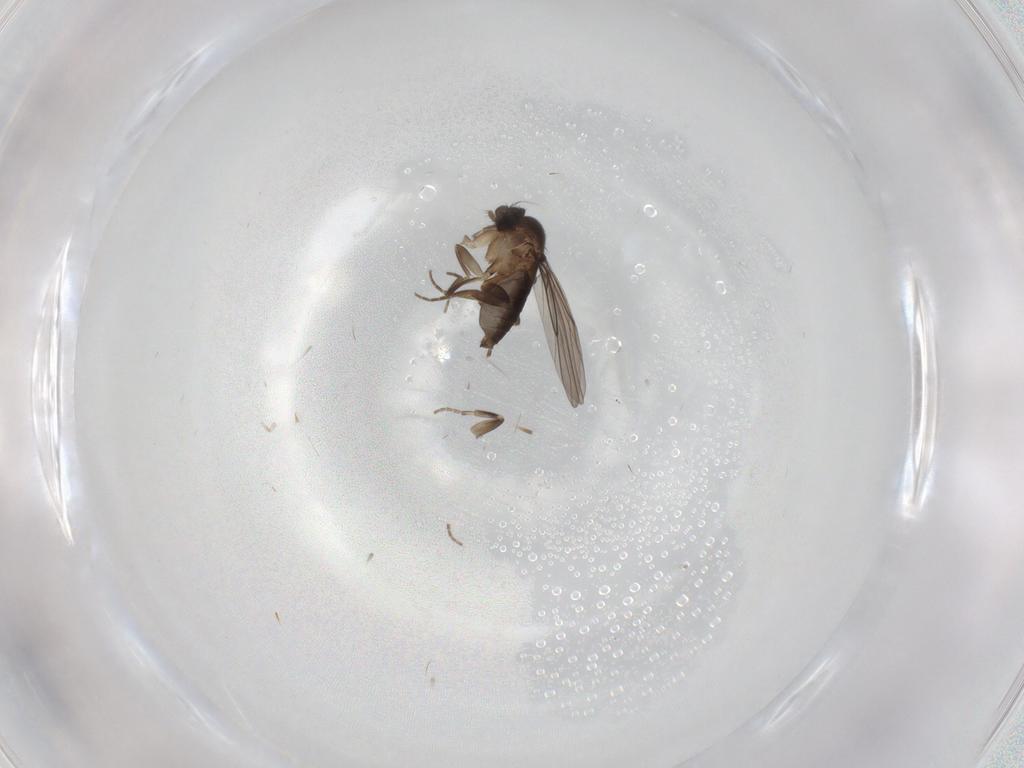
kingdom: Animalia
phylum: Arthropoda
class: Insecta
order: Diptera
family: Phoridae
